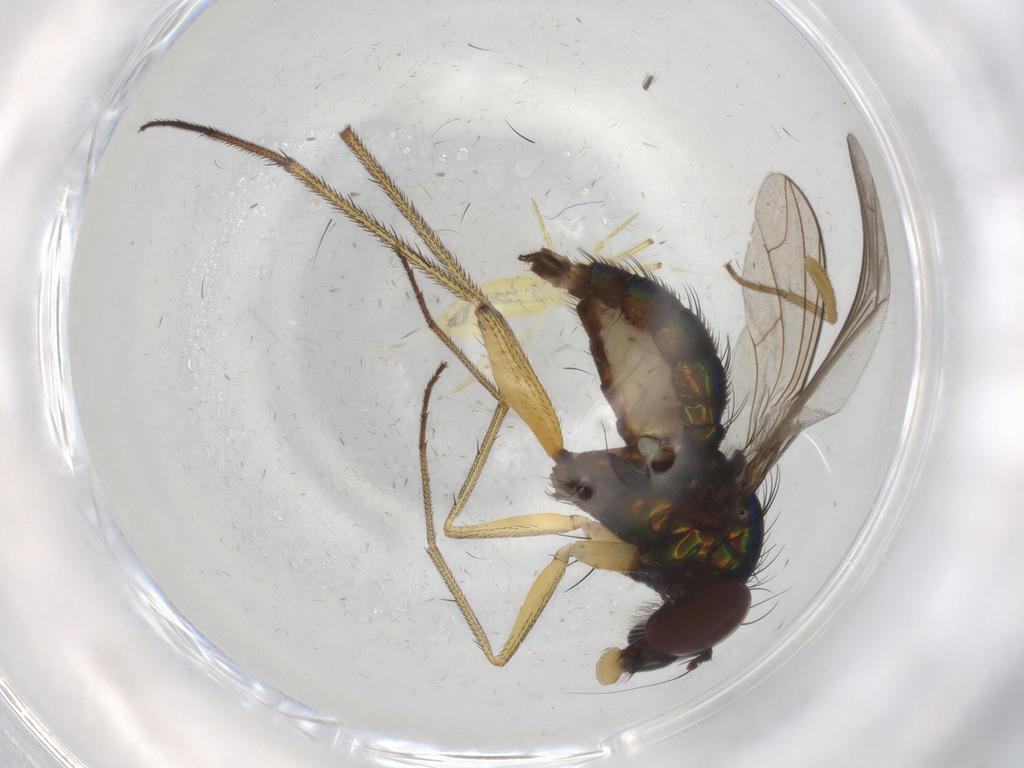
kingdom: Animalia
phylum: Arthropoda
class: Insecta
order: Diptera
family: Dolichopodidae
